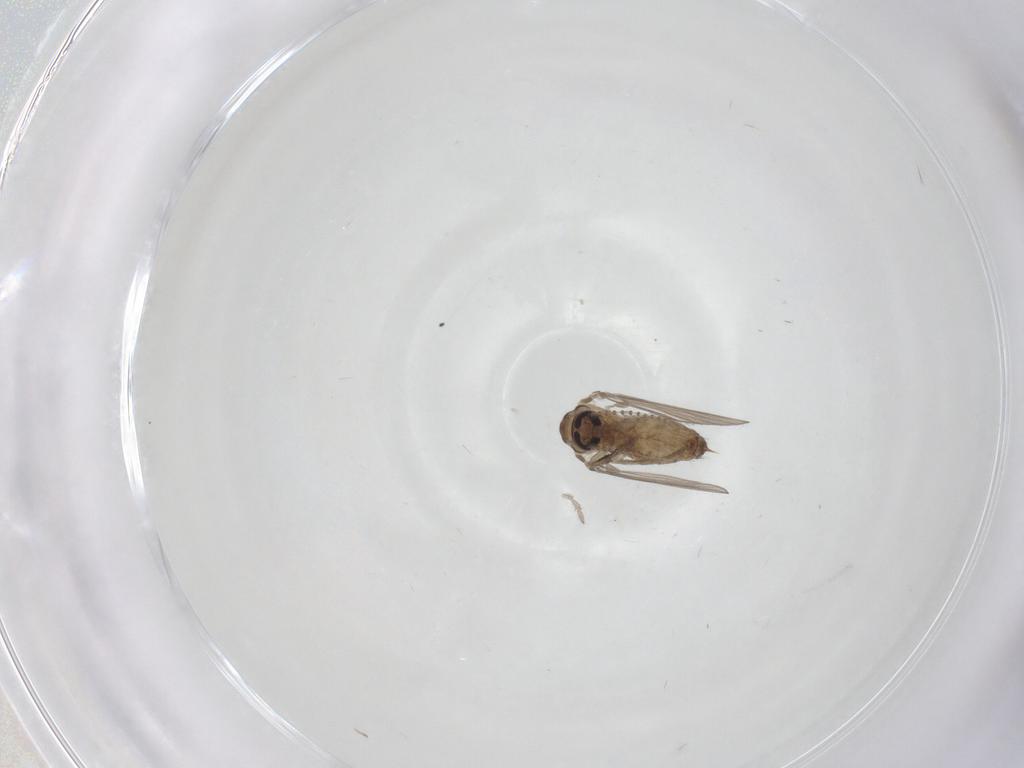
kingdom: Animalia
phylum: Arthropoda
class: Insecta
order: Diptera
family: Psychodidae
